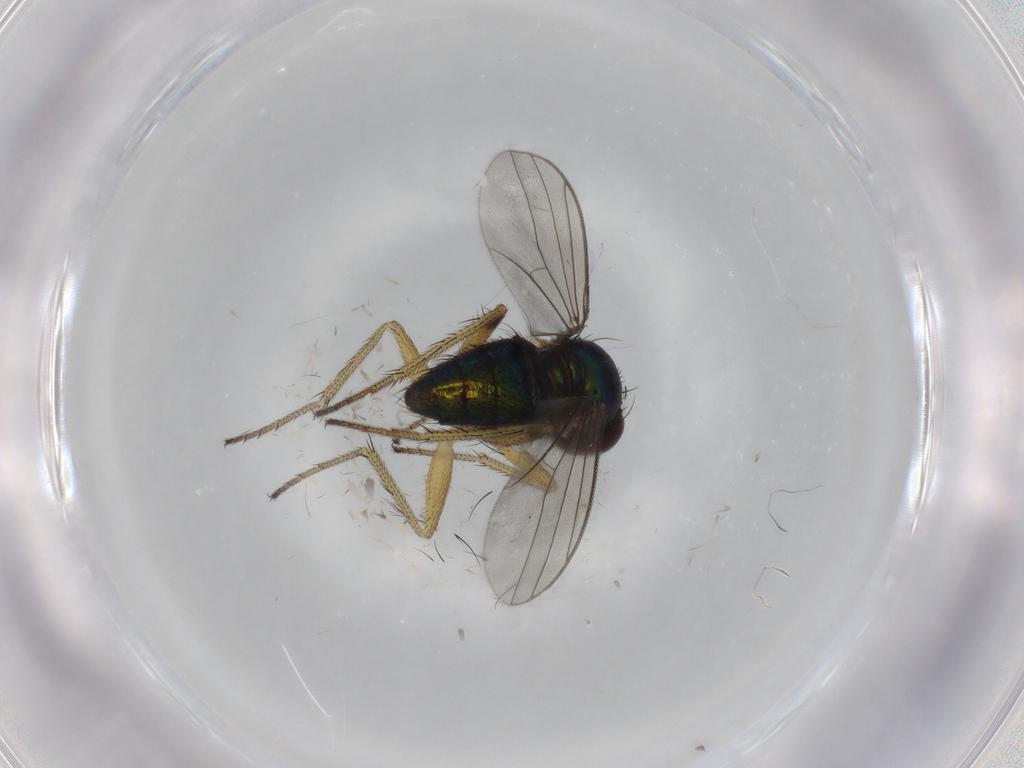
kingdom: Animalia
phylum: Arthropoda
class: Insecta
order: Diptera
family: Dolichopodidae
